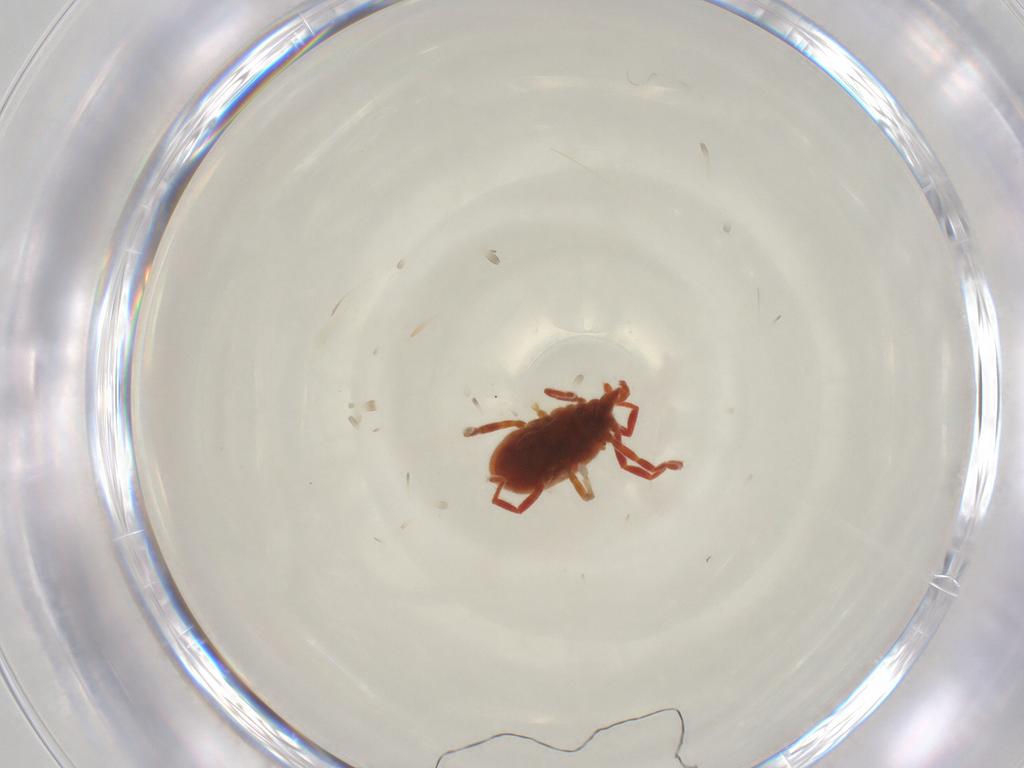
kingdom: Animalia
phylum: Arthropoda
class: Arachnida
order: Trombidiformes
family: Erythraeidae
